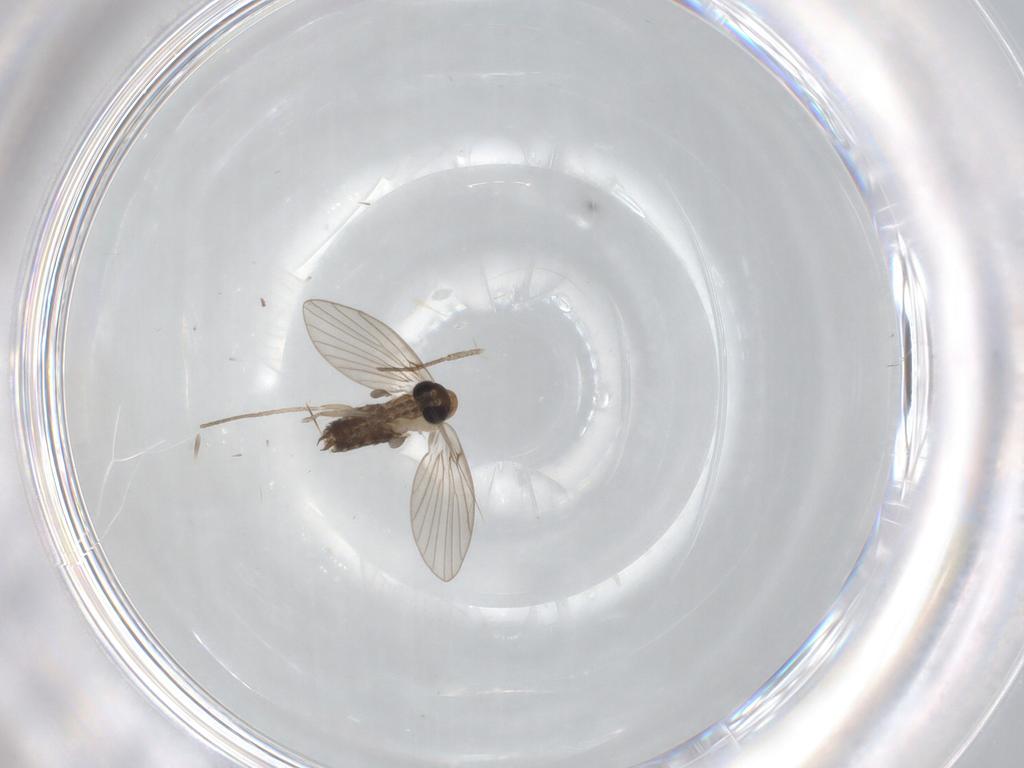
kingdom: Animalia
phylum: Arthropoda
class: Insecta
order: Diptera
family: Psychodidae
